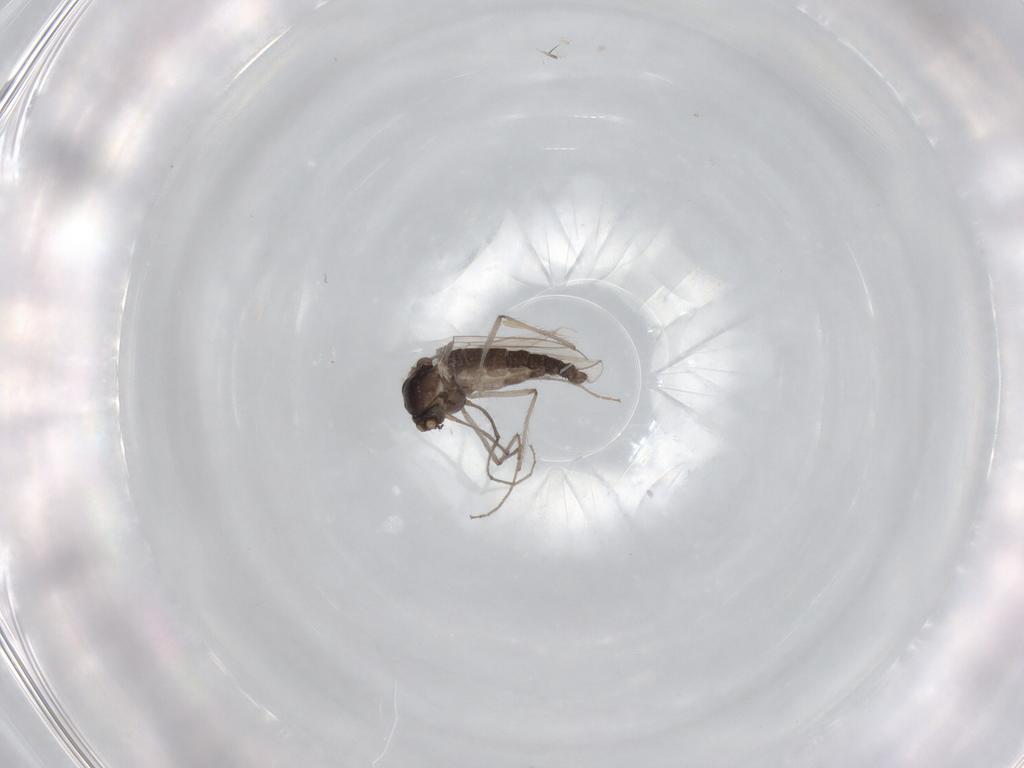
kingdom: Animalia
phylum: Arthropoda
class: Insecta
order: Diptera
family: Chironomidae
